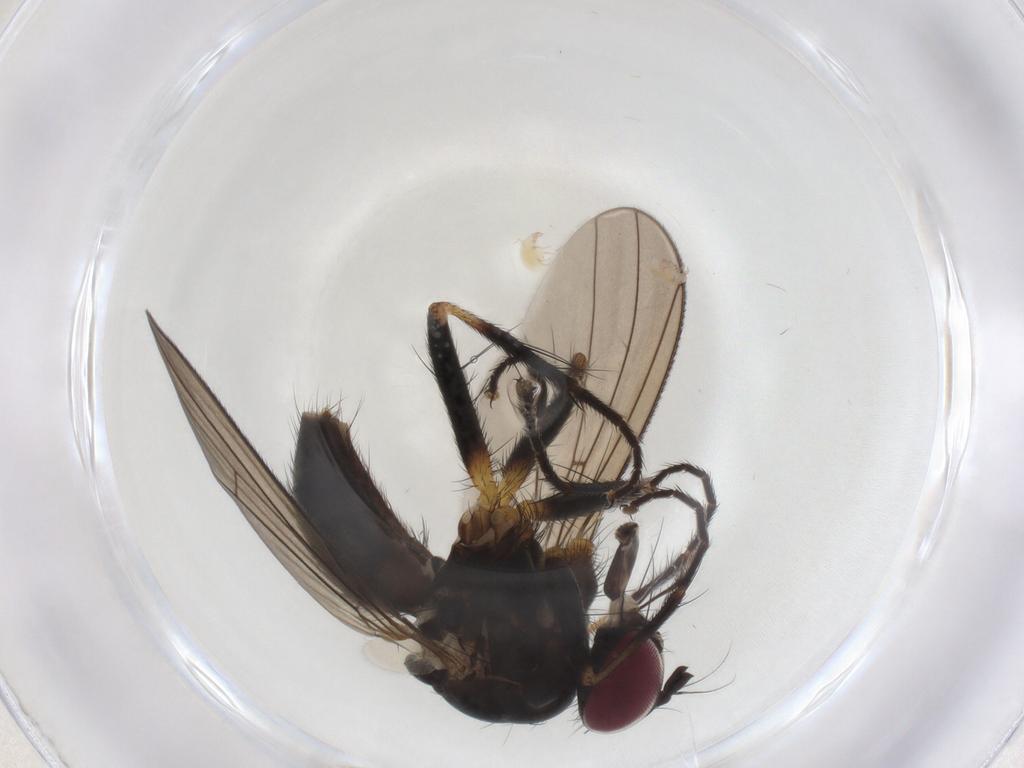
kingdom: Animalia
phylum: Arthropoda
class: Insecta
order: Diptera
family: Anthomyiidae
